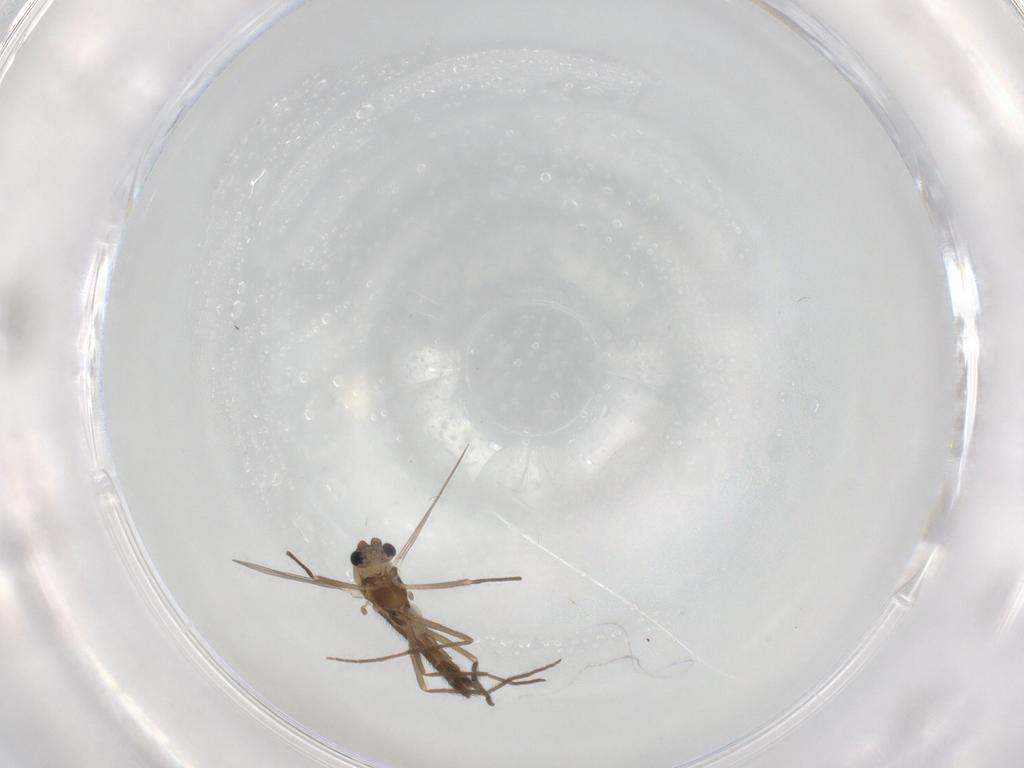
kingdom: Animalia
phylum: Arthropoda
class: Insecta
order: Diptera
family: Chironomidae
